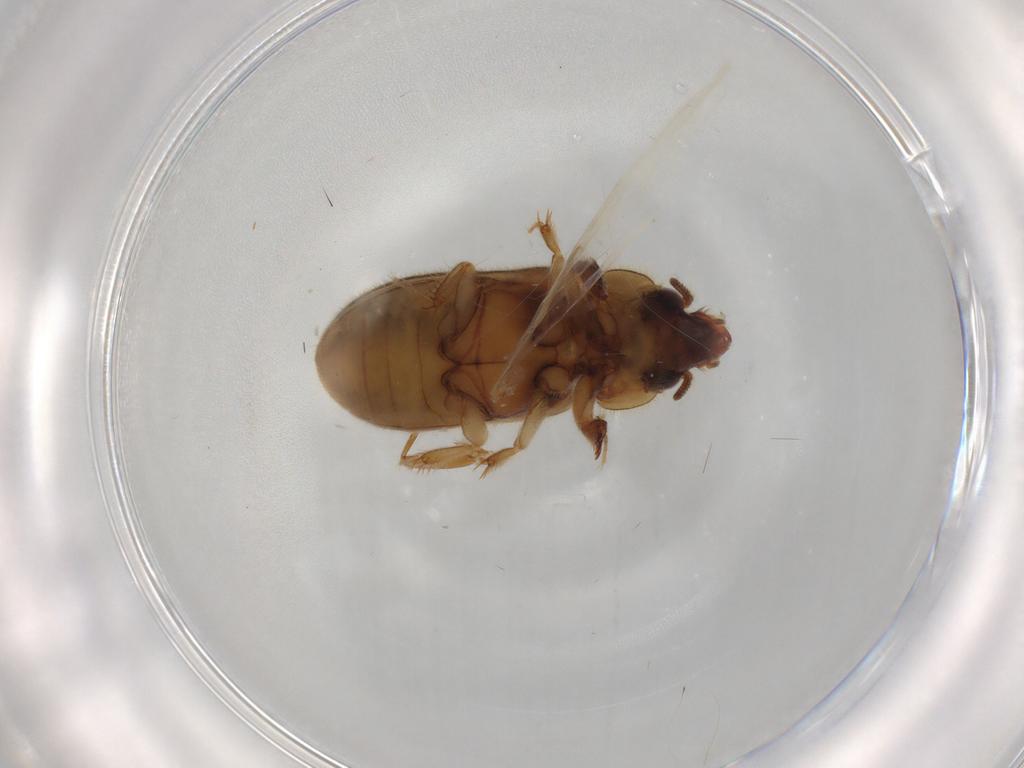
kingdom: Animalia
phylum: Arthropoda
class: Insecta
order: Coleoptera
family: Heteroceridae
